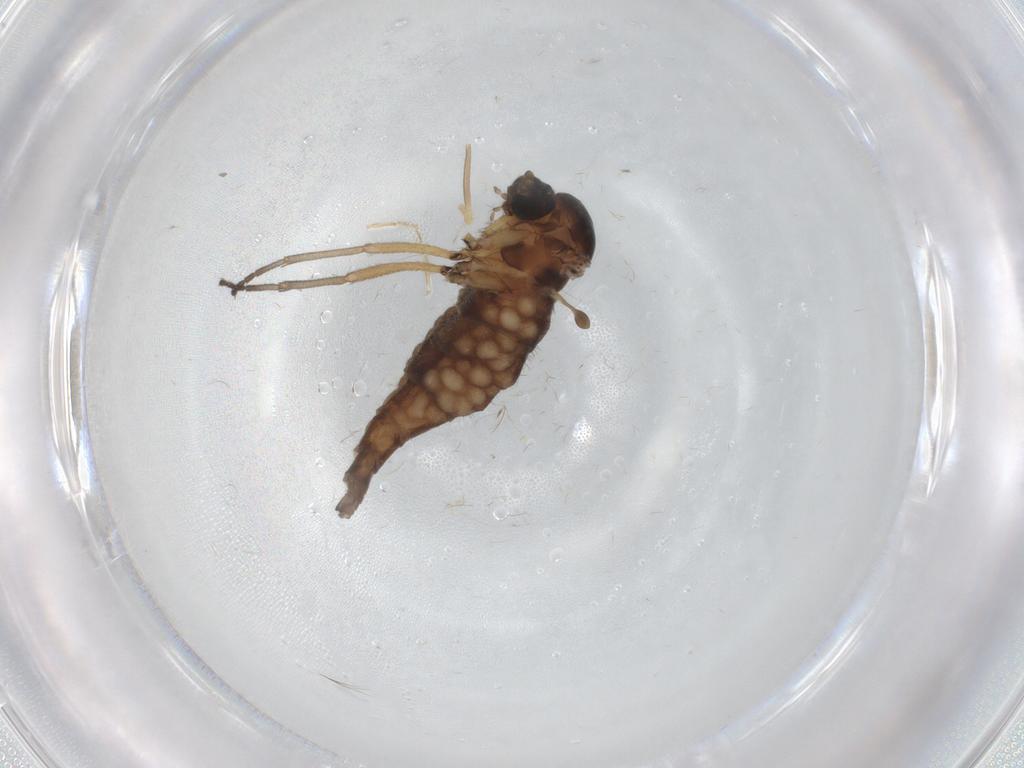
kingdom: Animalia
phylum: Arthropoda
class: Insecta
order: Diptera
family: Sciaridae
